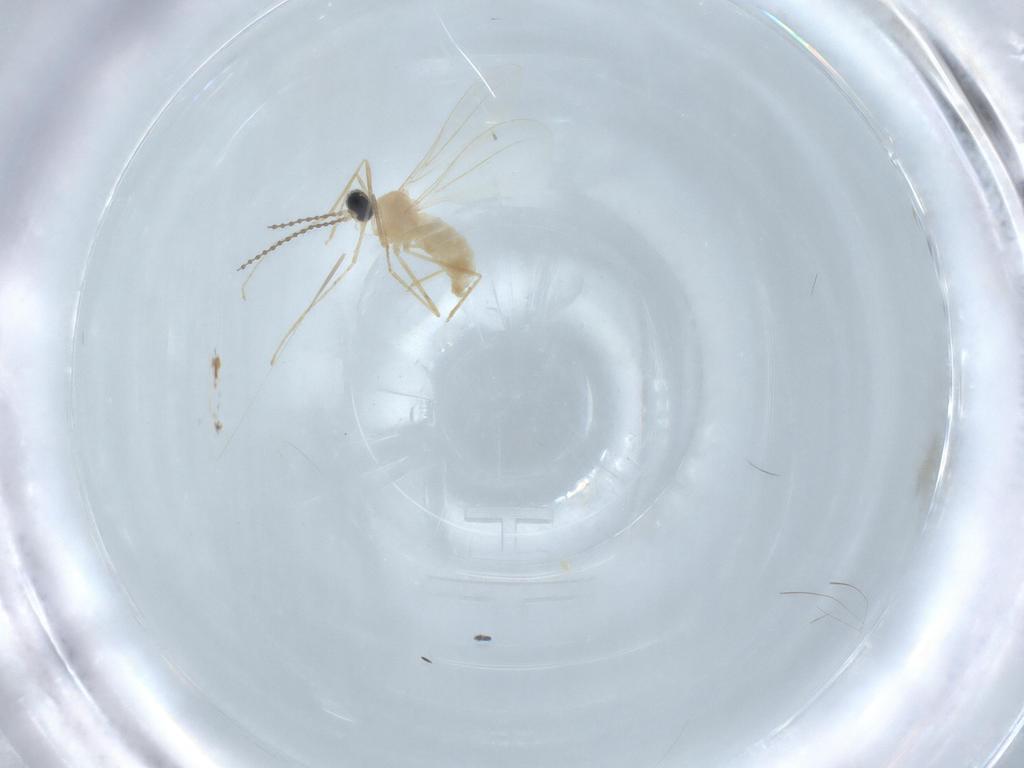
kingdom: Animalia
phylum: Arthropoda
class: Insecta
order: Diptera
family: Cecidomyiidae
